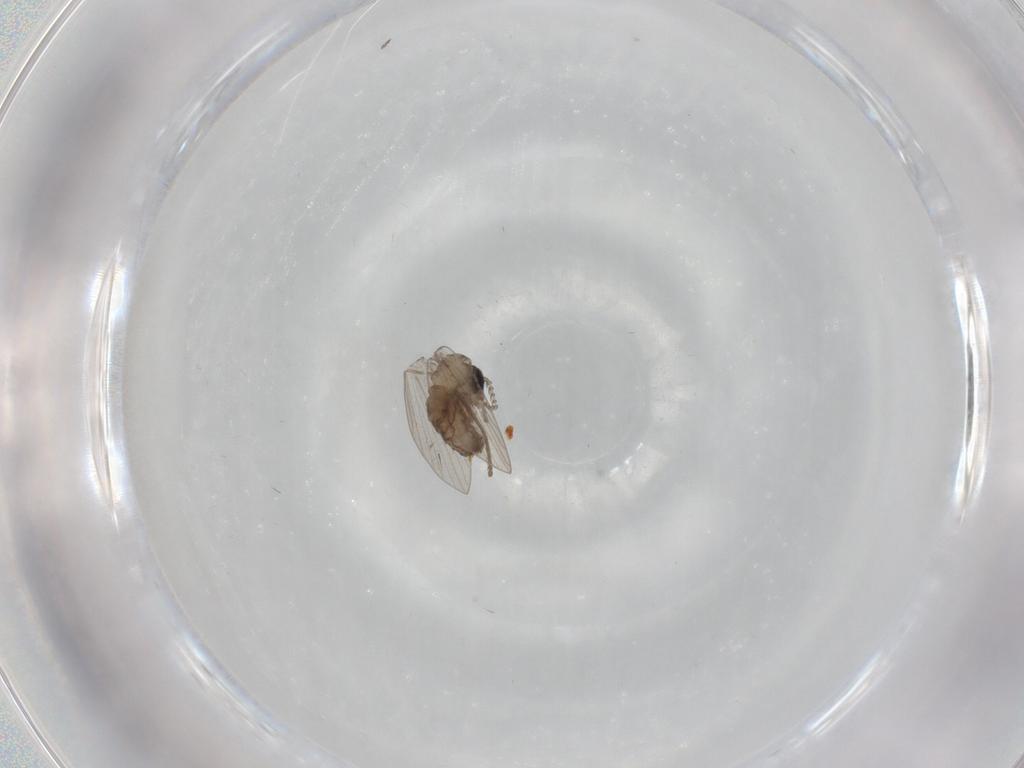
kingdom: Animalia
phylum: Arthropoda
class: Insecta
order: Diptera
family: Psychodidae
